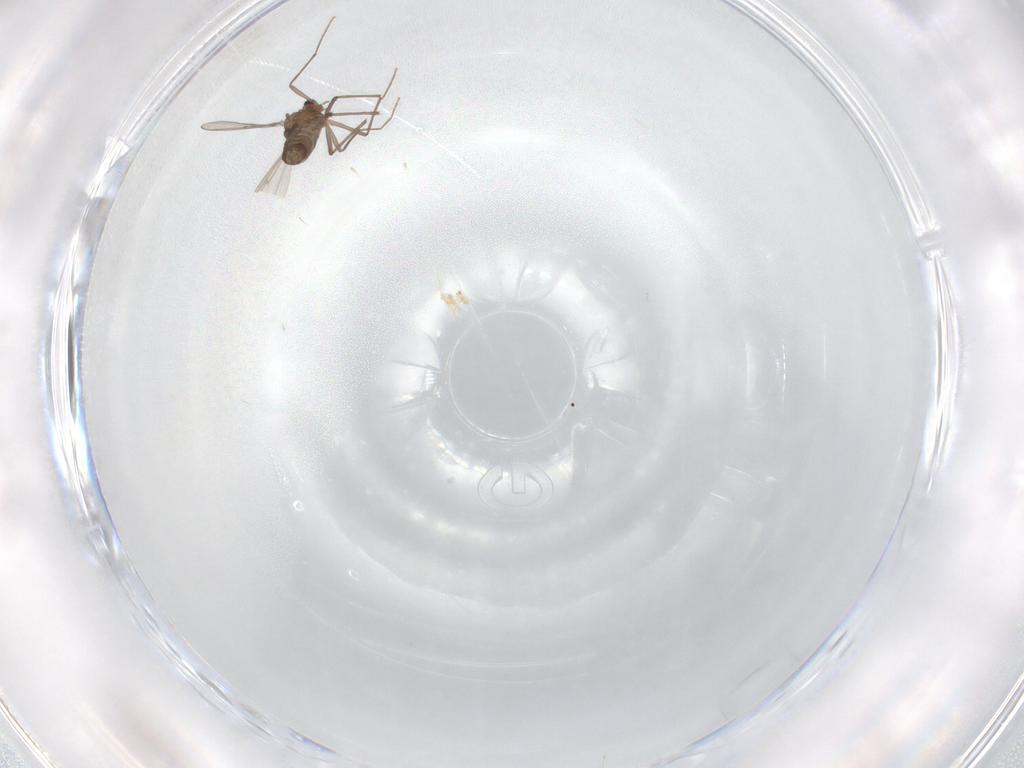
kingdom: Animalia
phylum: Arthropoda
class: Insecta
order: Diptera
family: Chironomidae
